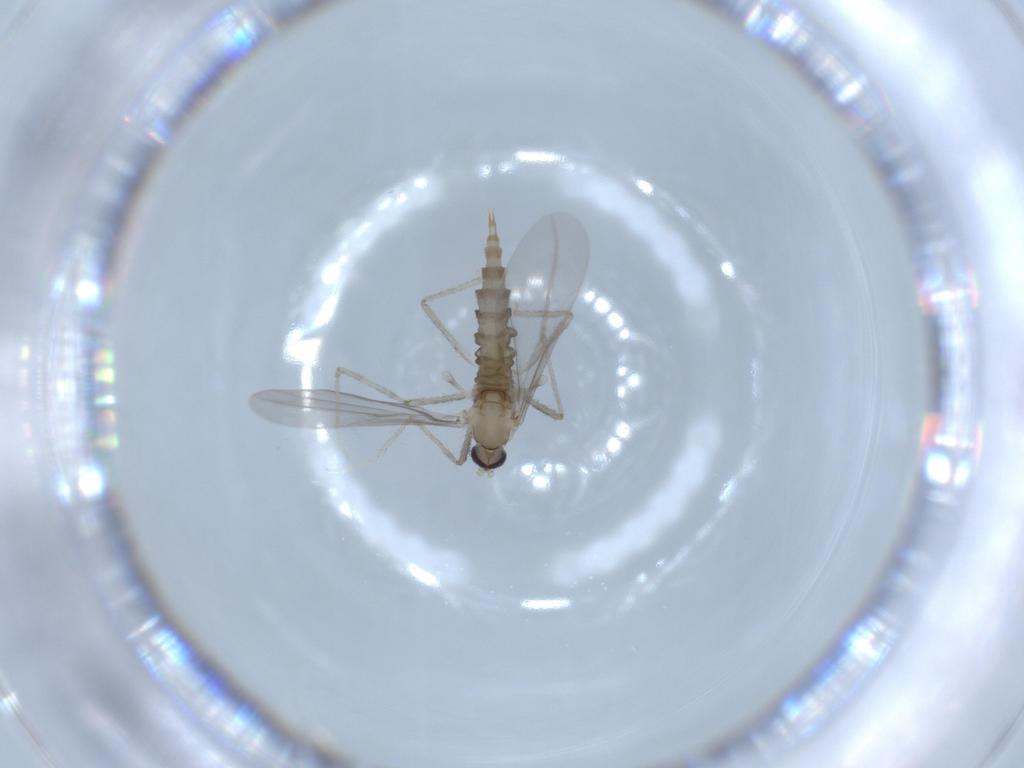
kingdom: Animalia
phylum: Arthropoda
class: Insecta
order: Diptera
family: Cecidomyiidae
